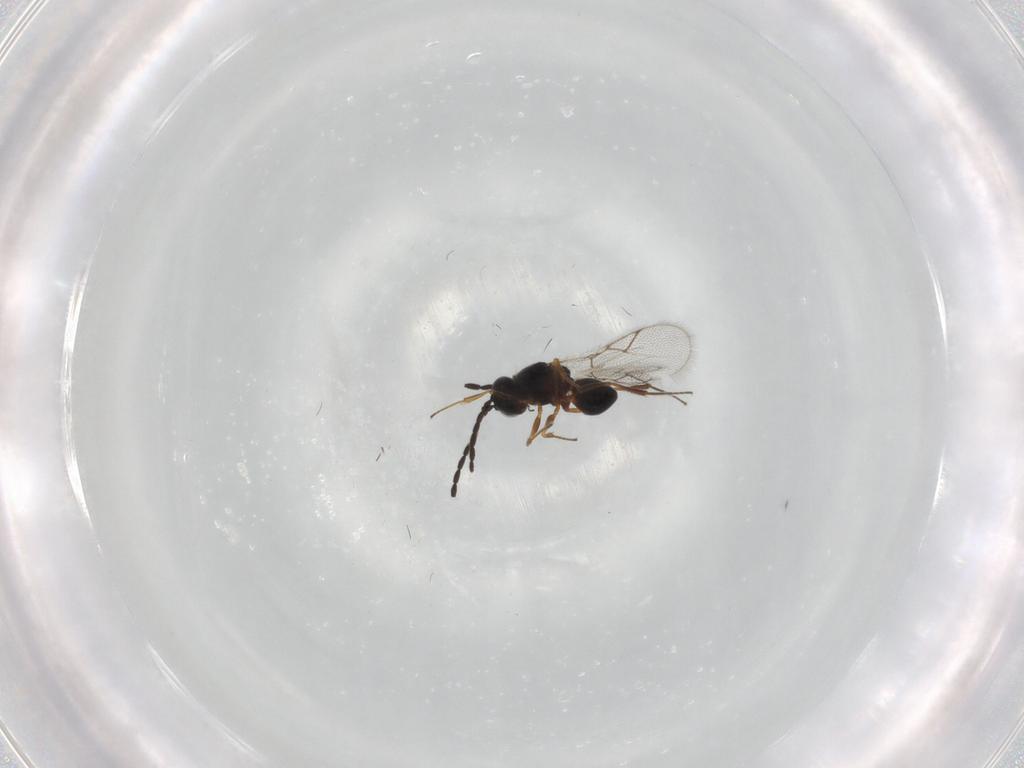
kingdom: Animalia
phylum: Arthropoda
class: Insecta
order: Hymenoptera
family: Figitidae
